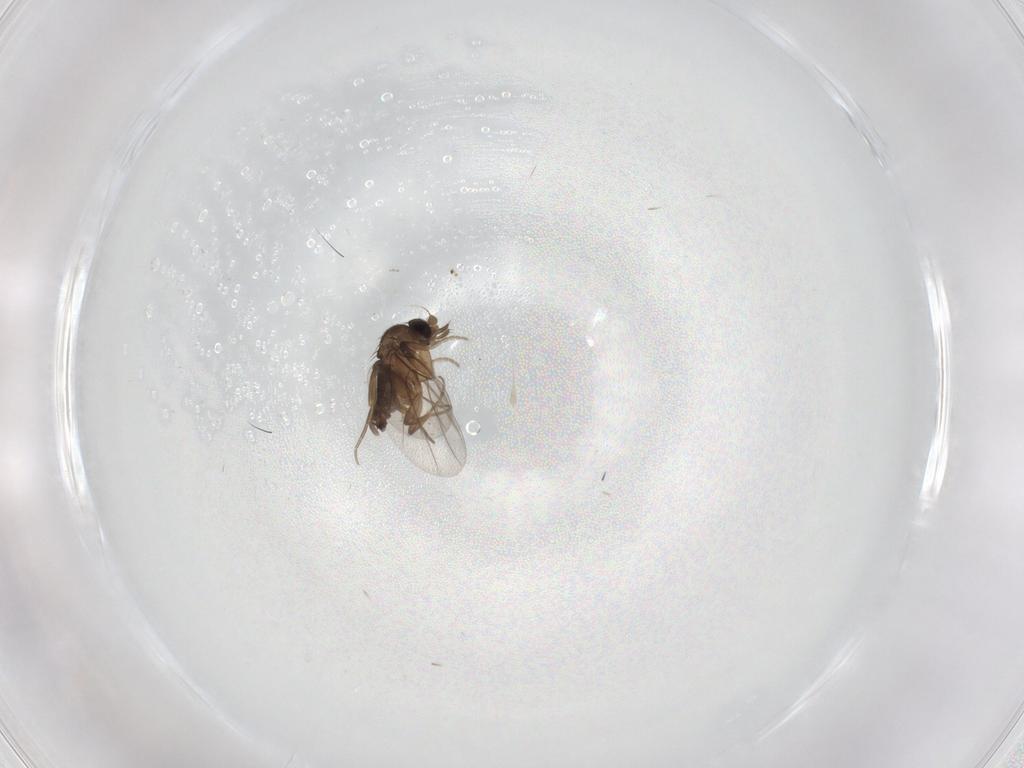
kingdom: Animalia
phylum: Arthropoda
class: Insecta
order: Diptera
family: Phoridae
